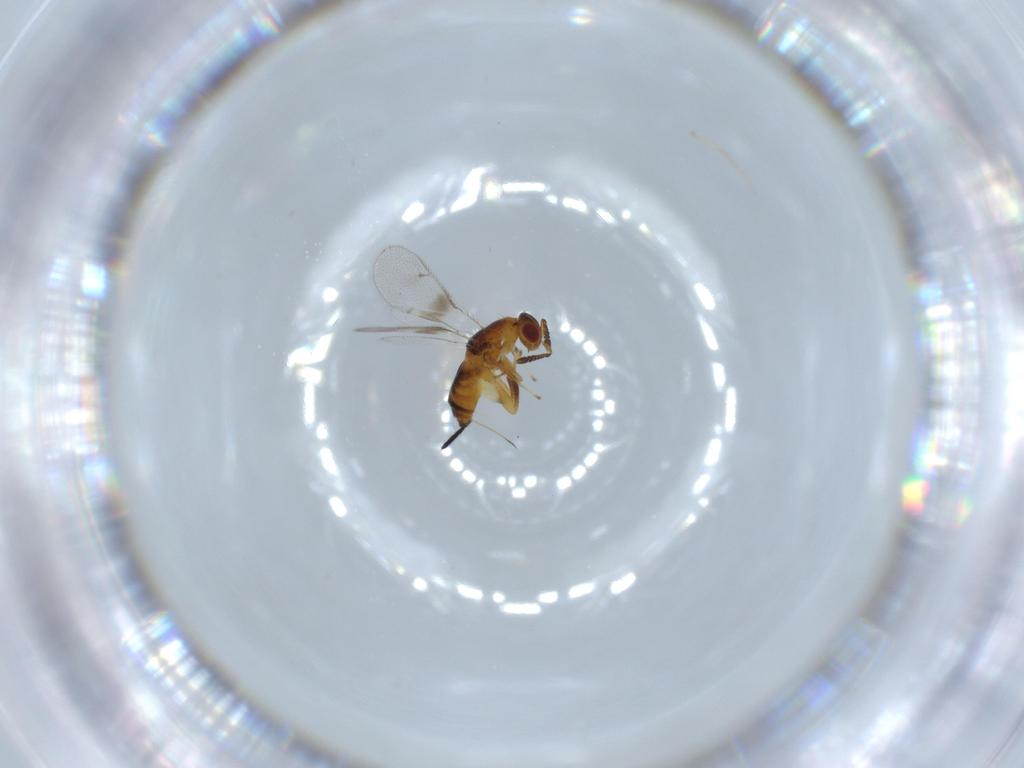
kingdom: Animalia
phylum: Arthropoda
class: Insecta
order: Hymenoptera
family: Torymidae
